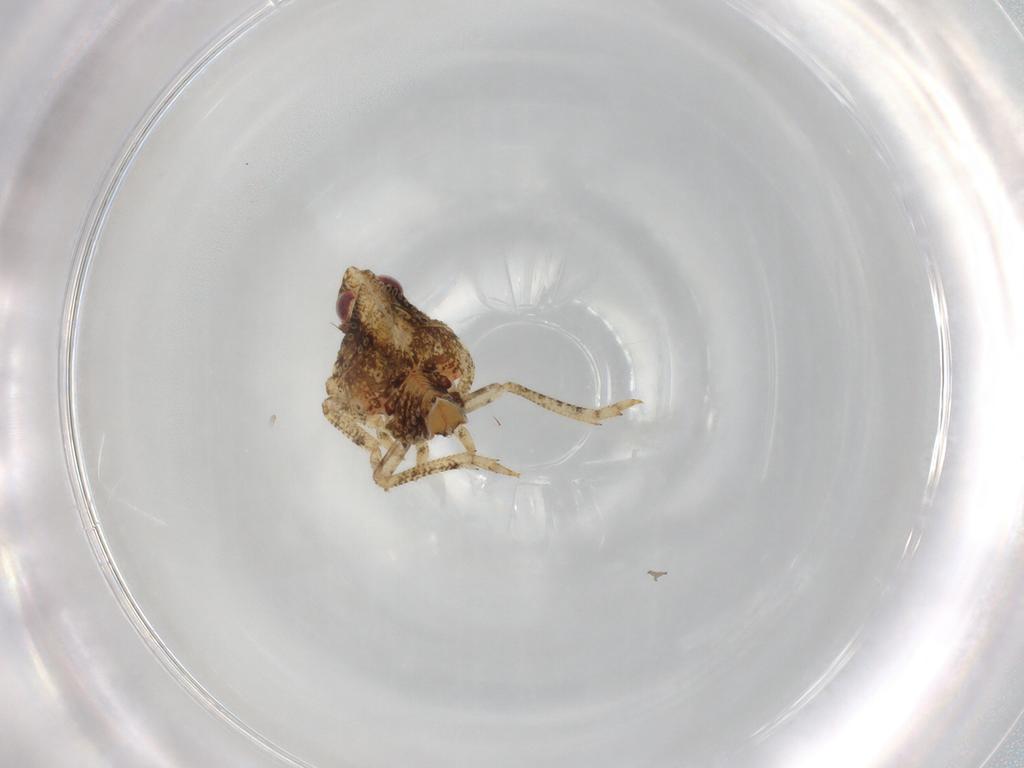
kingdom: Animalia
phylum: Arthropoda
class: Insecta
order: Hemiptera
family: Fulgoroidea_incertae_sedis
